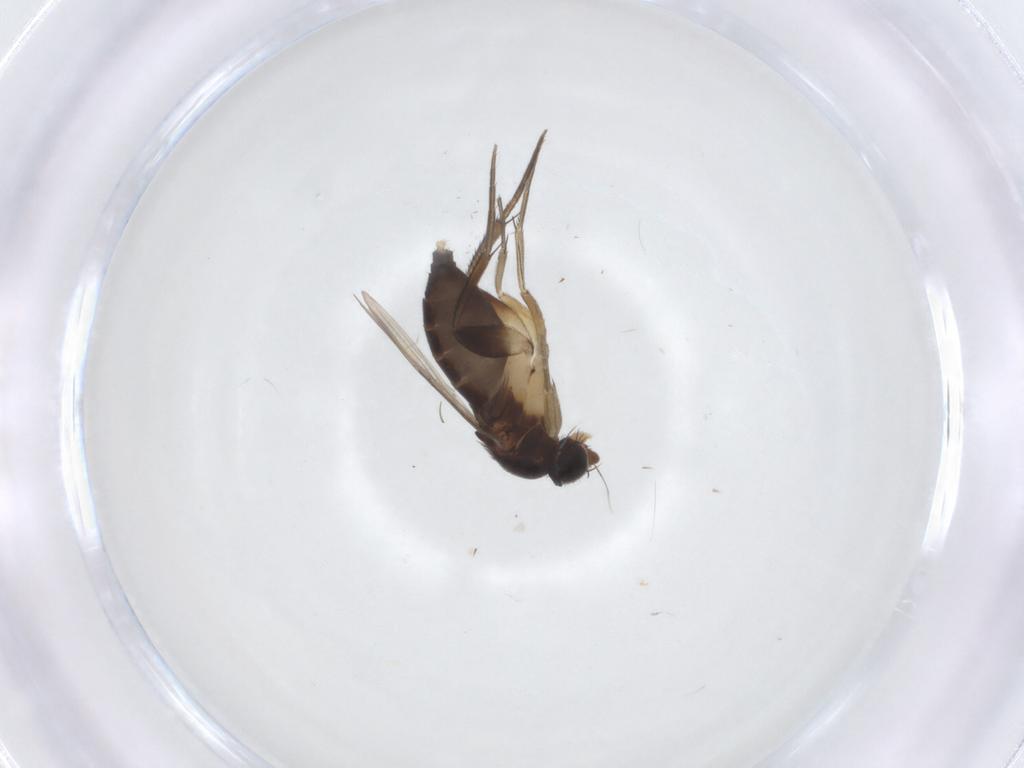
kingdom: Animalia
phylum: Arthropoda
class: Insecta
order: Diptera
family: Phoridae
